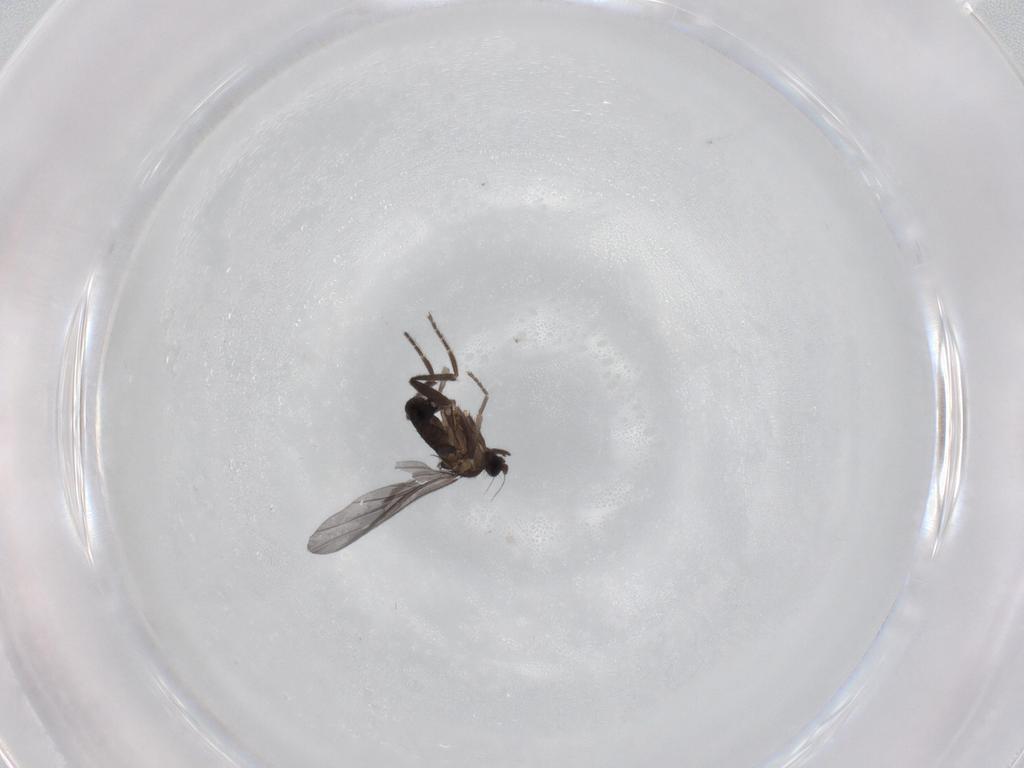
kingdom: Animalia
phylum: Arthropoda
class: Insecta
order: Diptera
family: Phoridae
